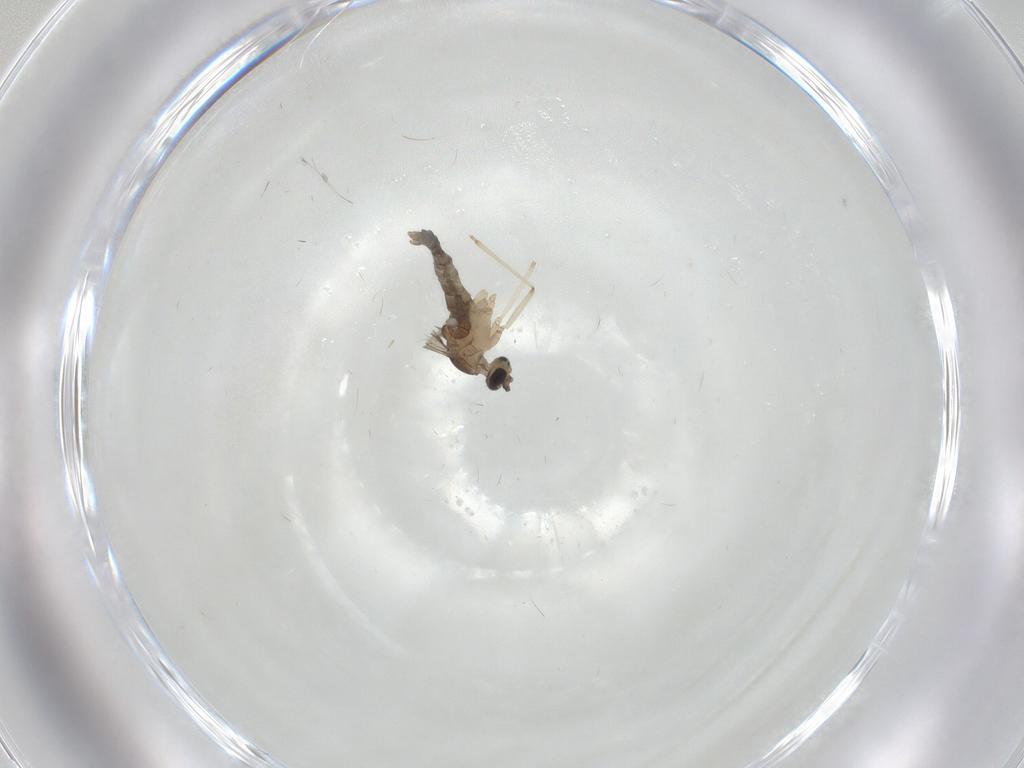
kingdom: Animalia
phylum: Arthropoda
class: Insecta
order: Diptera
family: Cecidomyiidae
